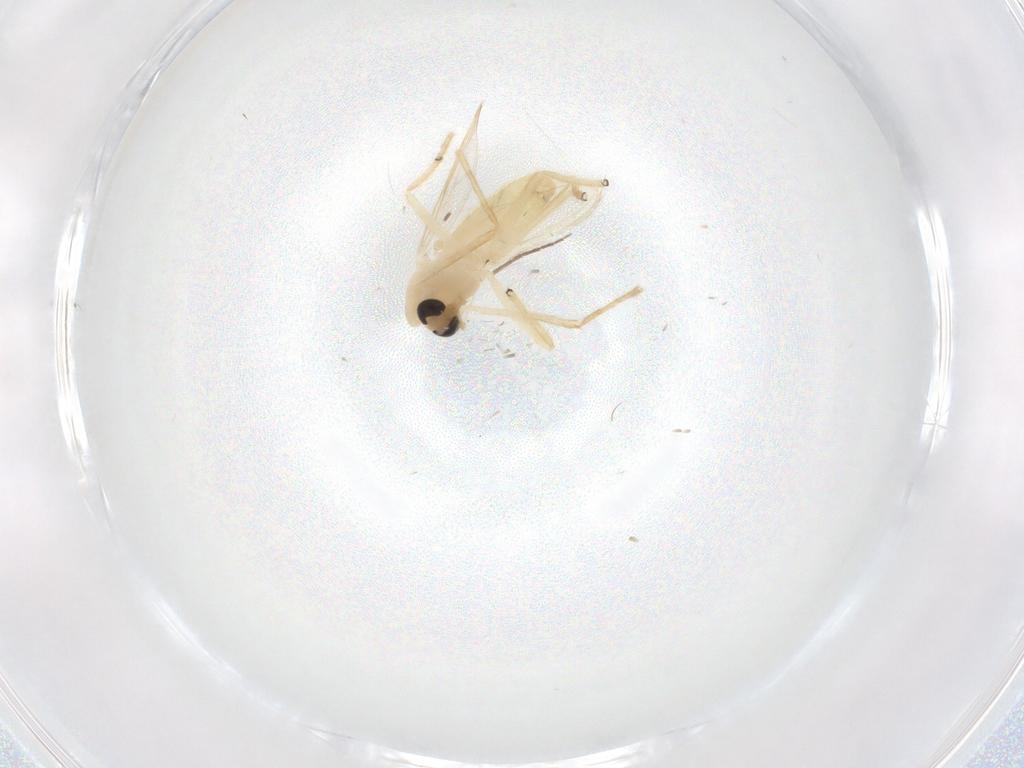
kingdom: Animalia
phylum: Arthropoda
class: Insecta
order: Diptera
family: Chironomidae
